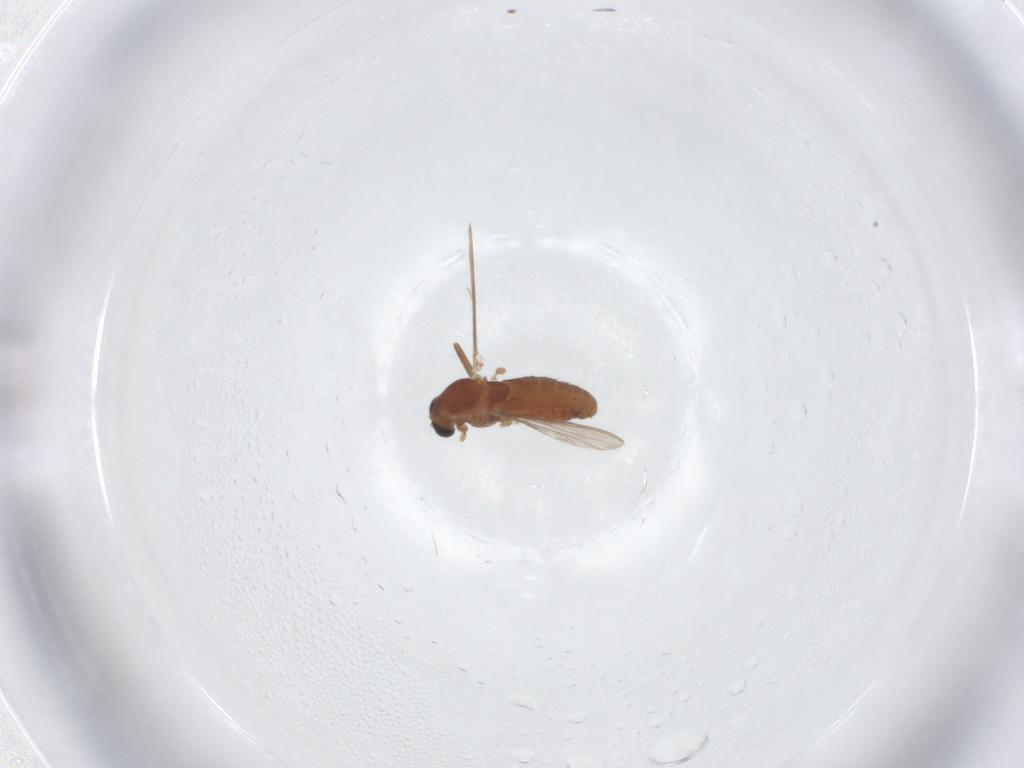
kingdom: Animalia
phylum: Arthropoda
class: Insecta
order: Diptera
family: Chironomidae
